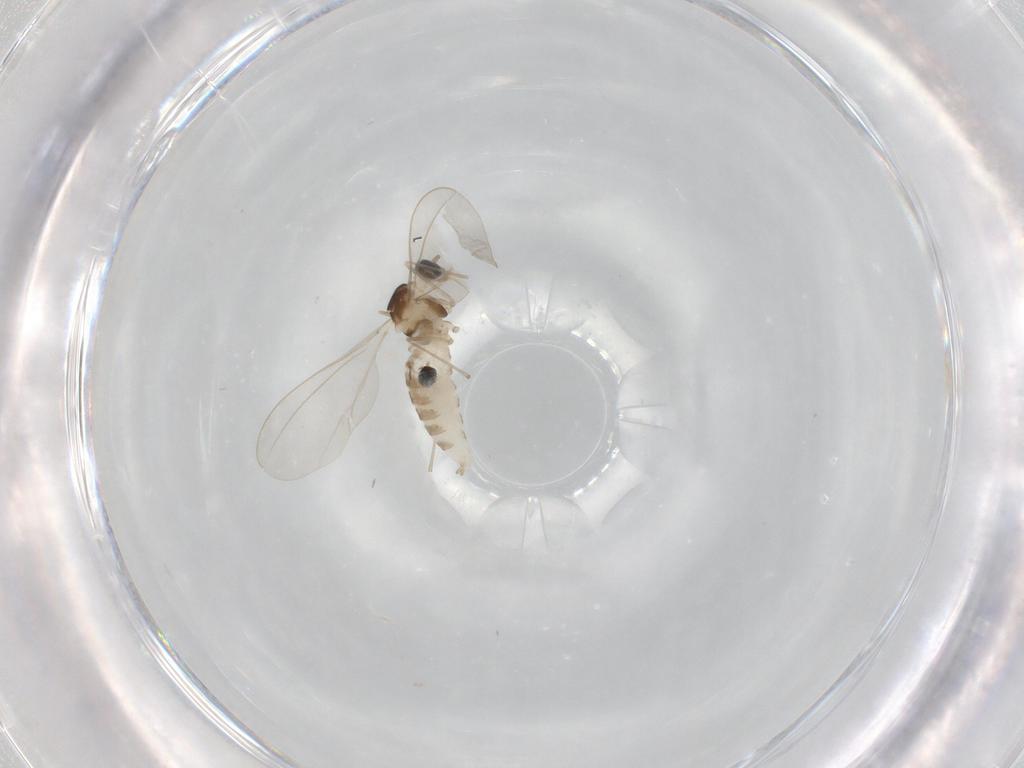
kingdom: Animalia
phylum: Arthropoda
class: Insecta
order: Diptera
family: Cecidomyiidae
